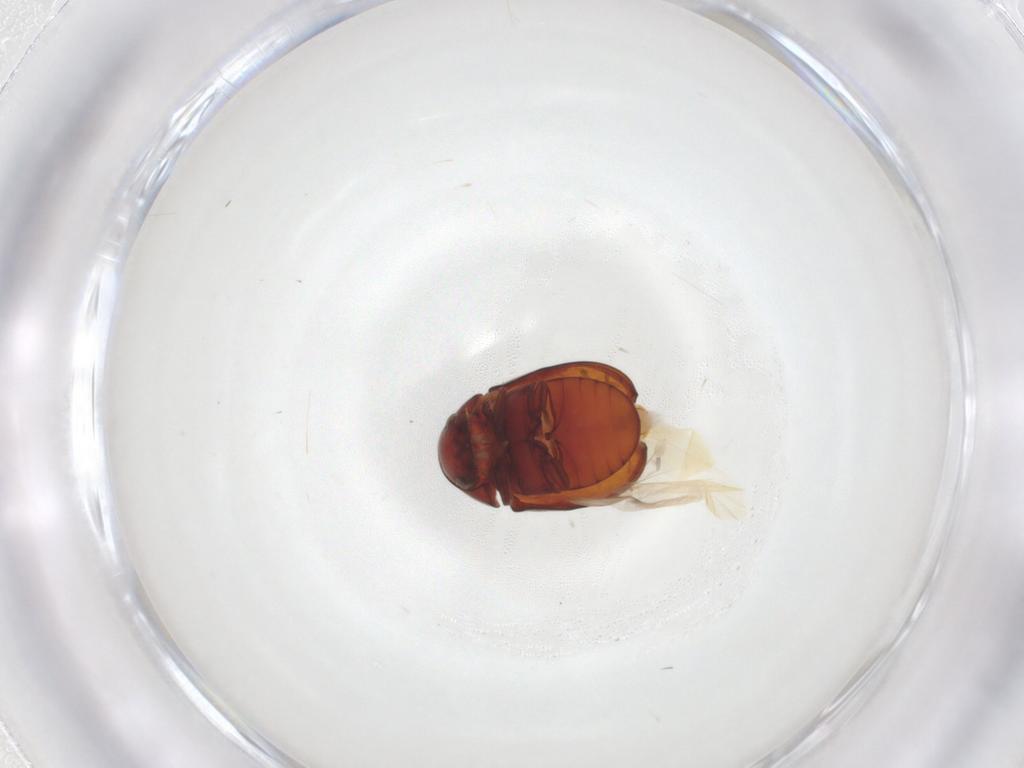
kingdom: Animalia
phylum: Arthropoda
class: Insecta
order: Coleoptera
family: Ptinidae
